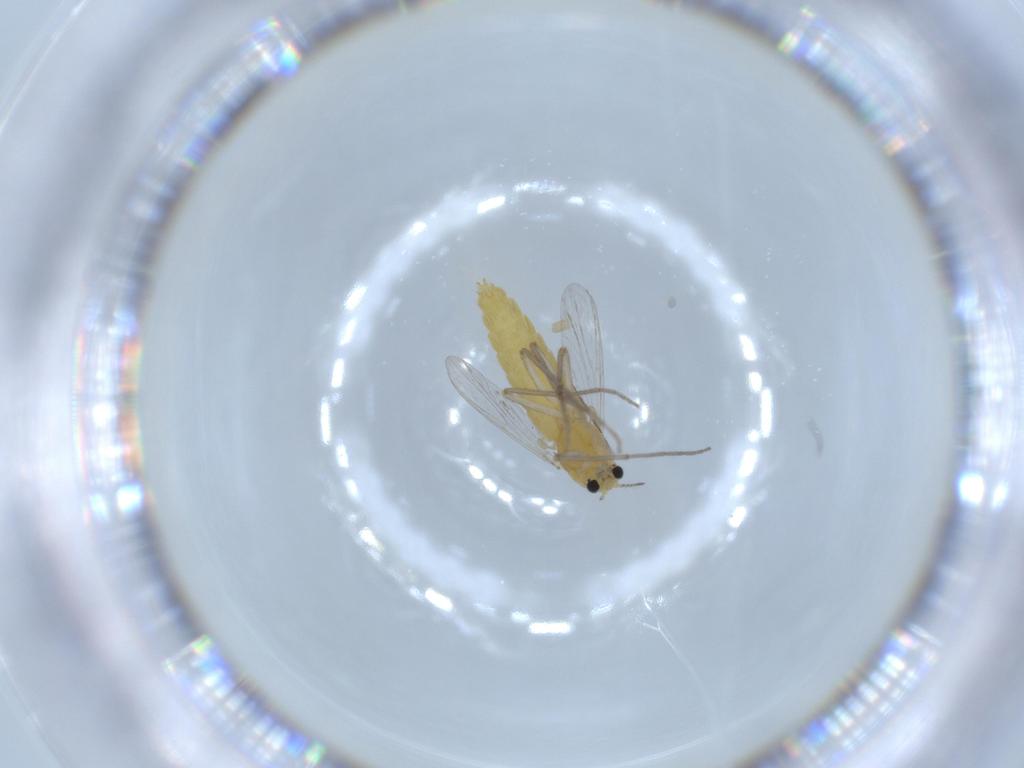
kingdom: Animalia
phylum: Arthropoda
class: Insecta
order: Diptera
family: Chironomidae
